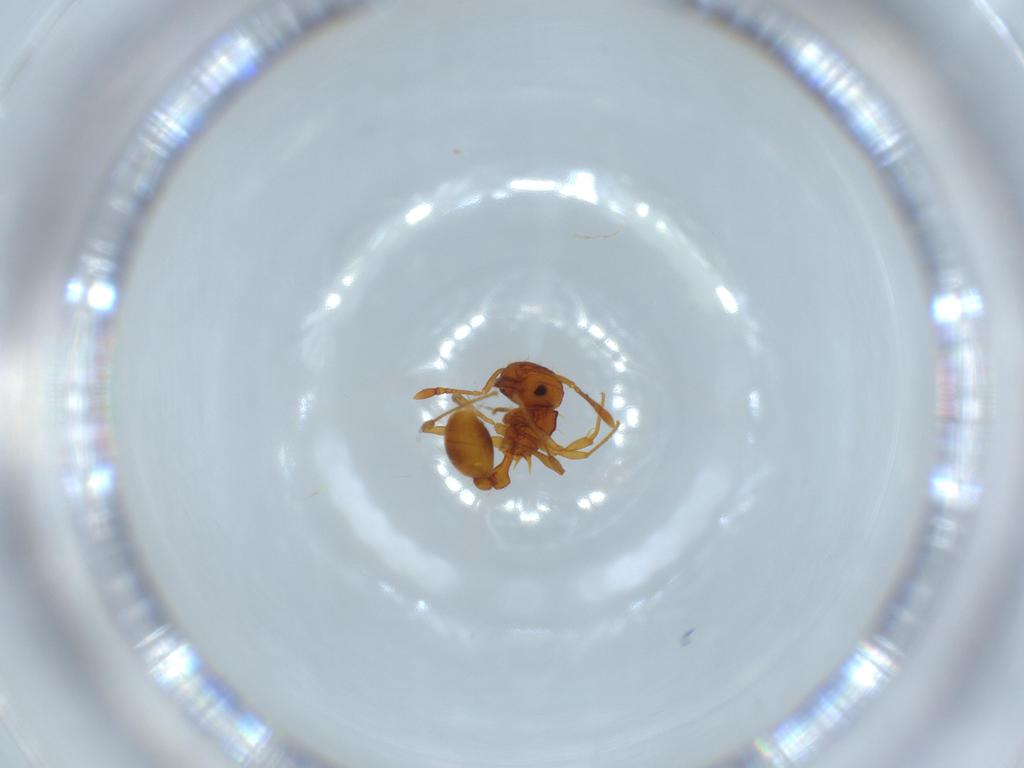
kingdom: Animalia
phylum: Arthropoda
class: Insecta
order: Hymenoptera
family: Formicidae
